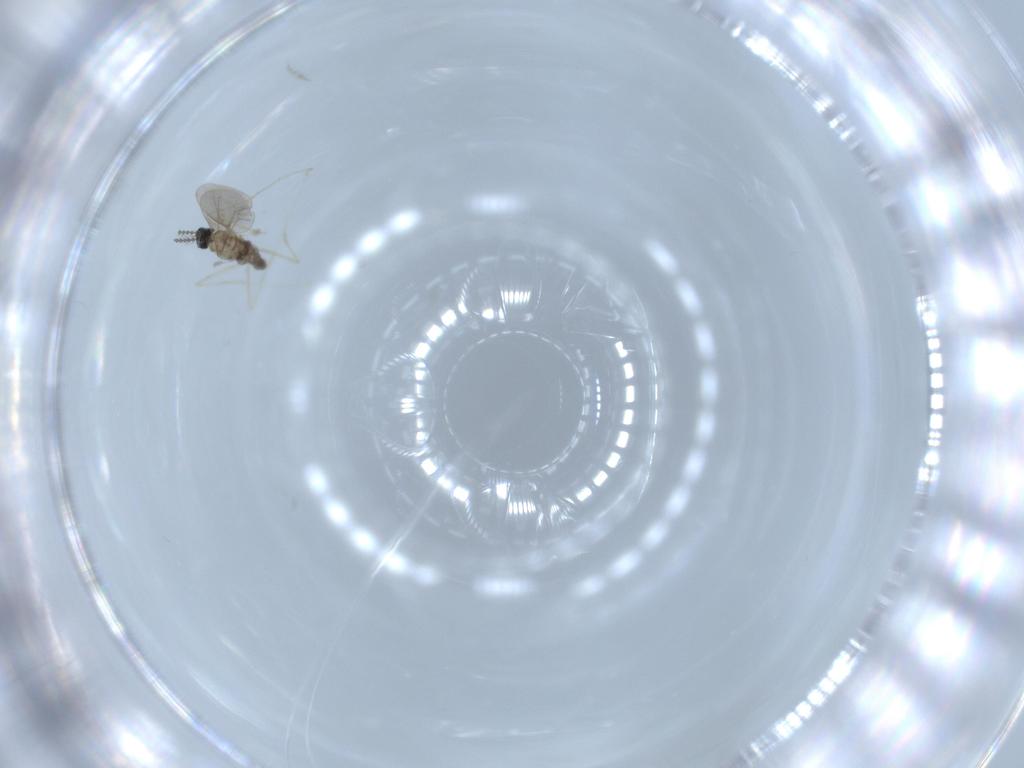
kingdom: Animalia
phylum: Arthropoda
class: Insecta
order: Diptera
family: Cecidomyiidae
